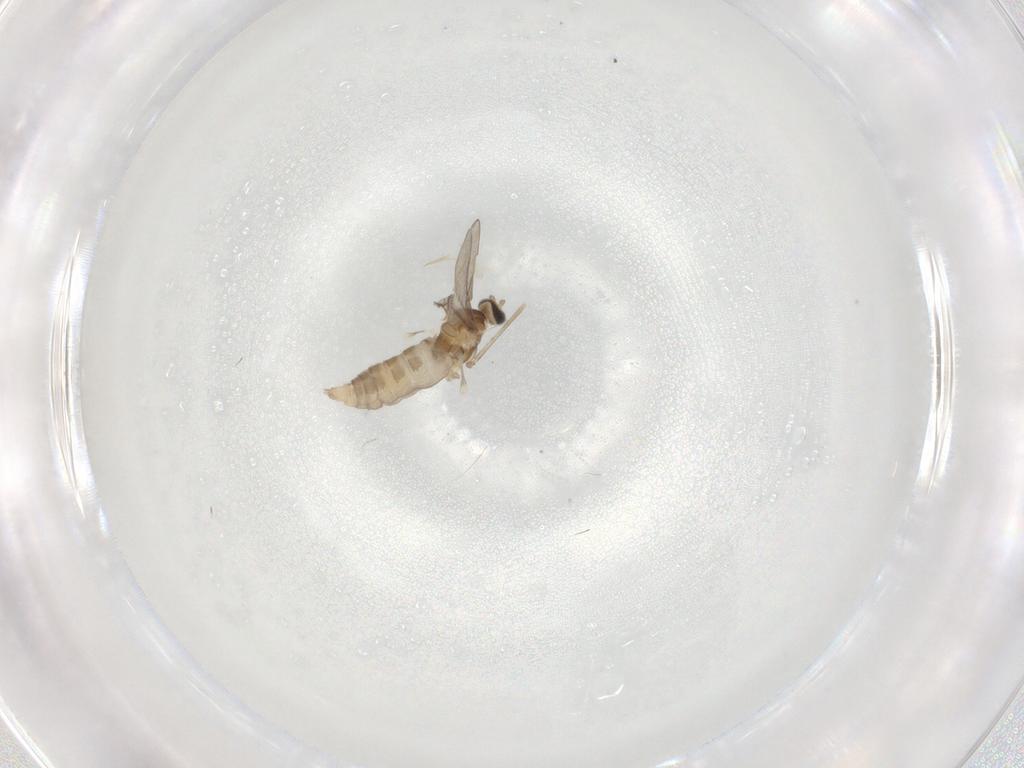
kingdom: Animalia
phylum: Arthropoda
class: Insecta
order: Diptera
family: Cecidomyiidae
